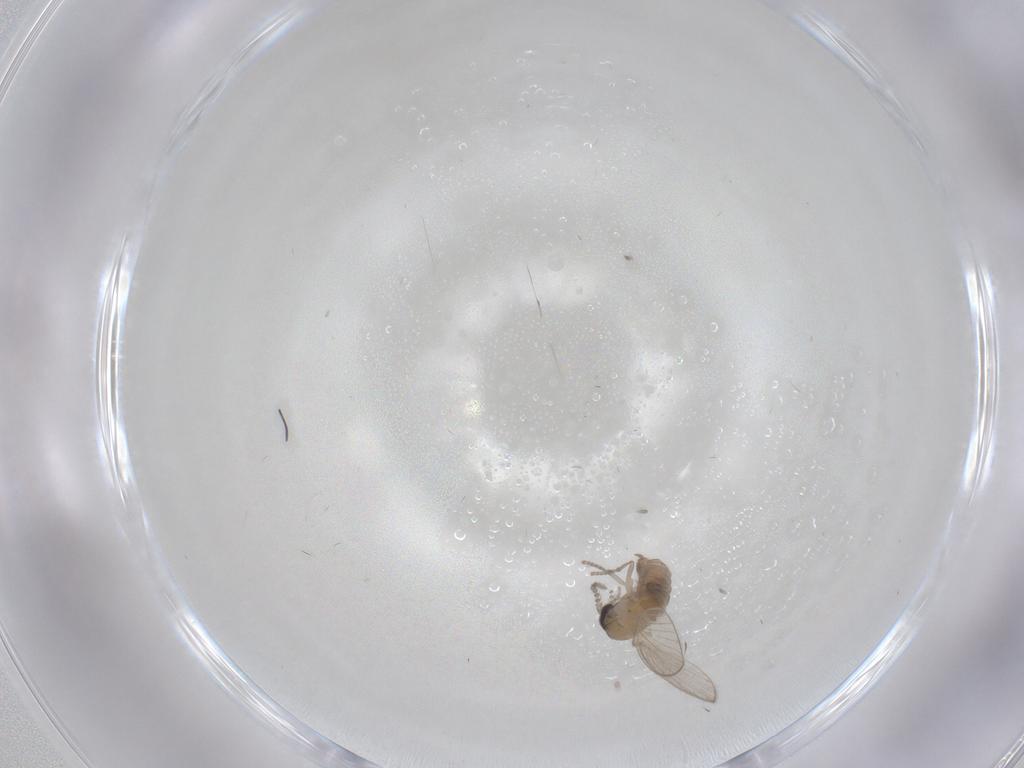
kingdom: Animalia
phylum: Arthropoda
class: Insecta
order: Diptera
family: Psychodidae
